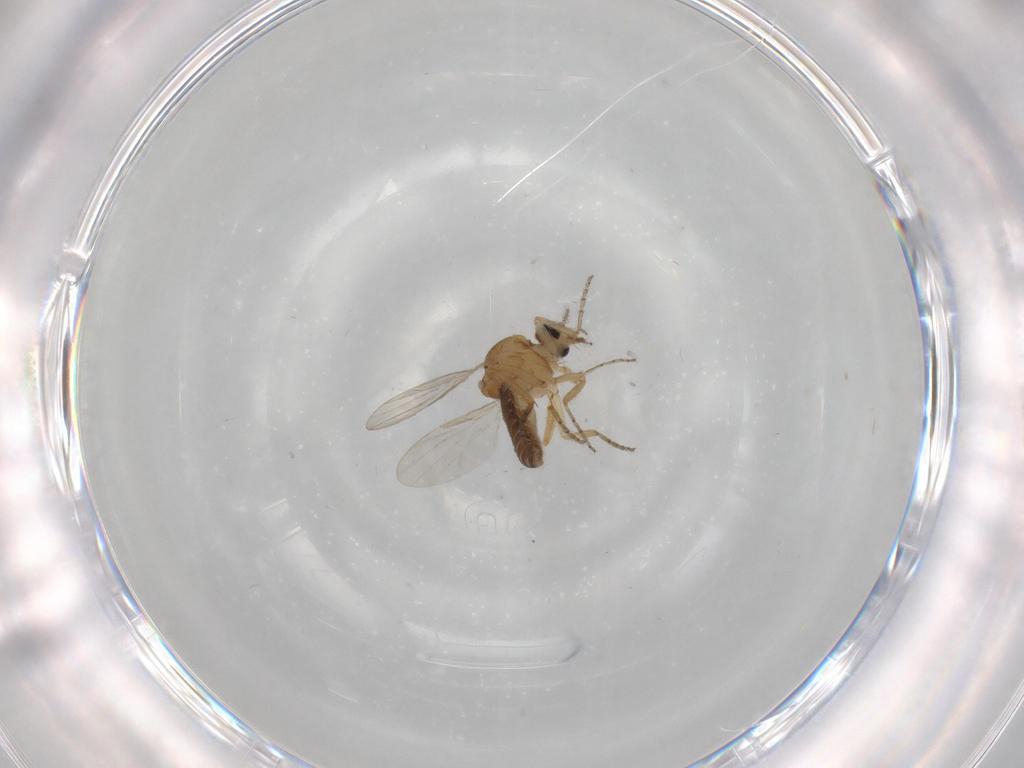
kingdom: Animalia
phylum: Arthropoda
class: Insecta
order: Diptera
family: Ceratopogonidae
